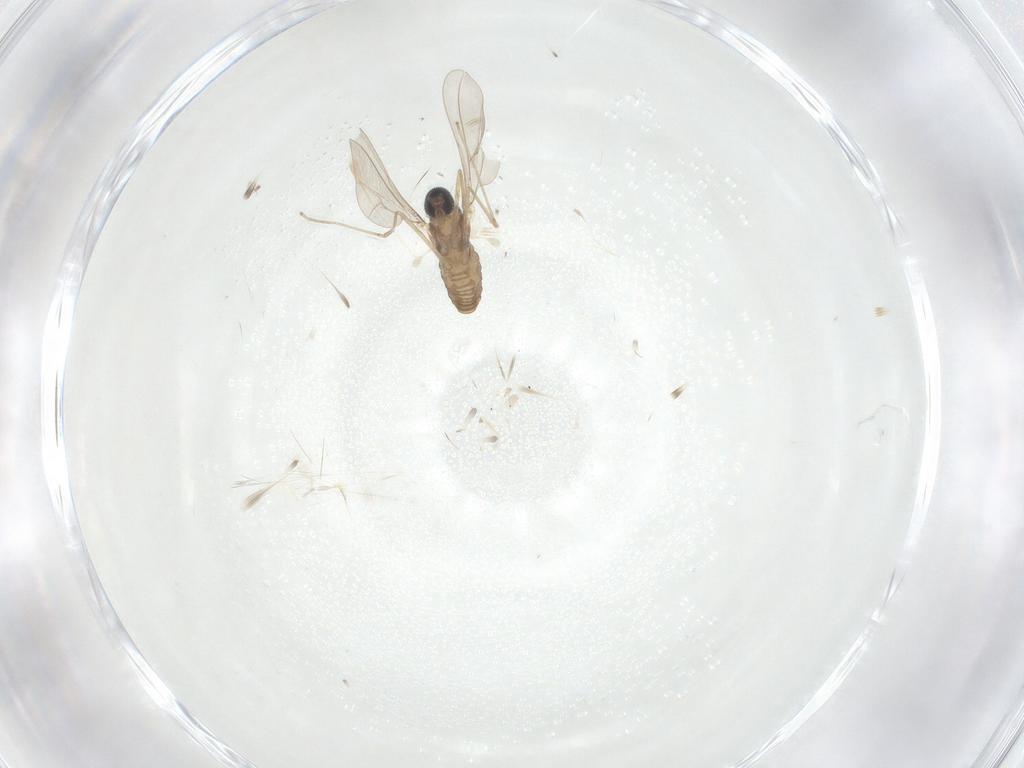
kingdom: Animalia
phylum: Arthropoda
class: Insecta
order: Diptera
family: Cecidomyiidae
